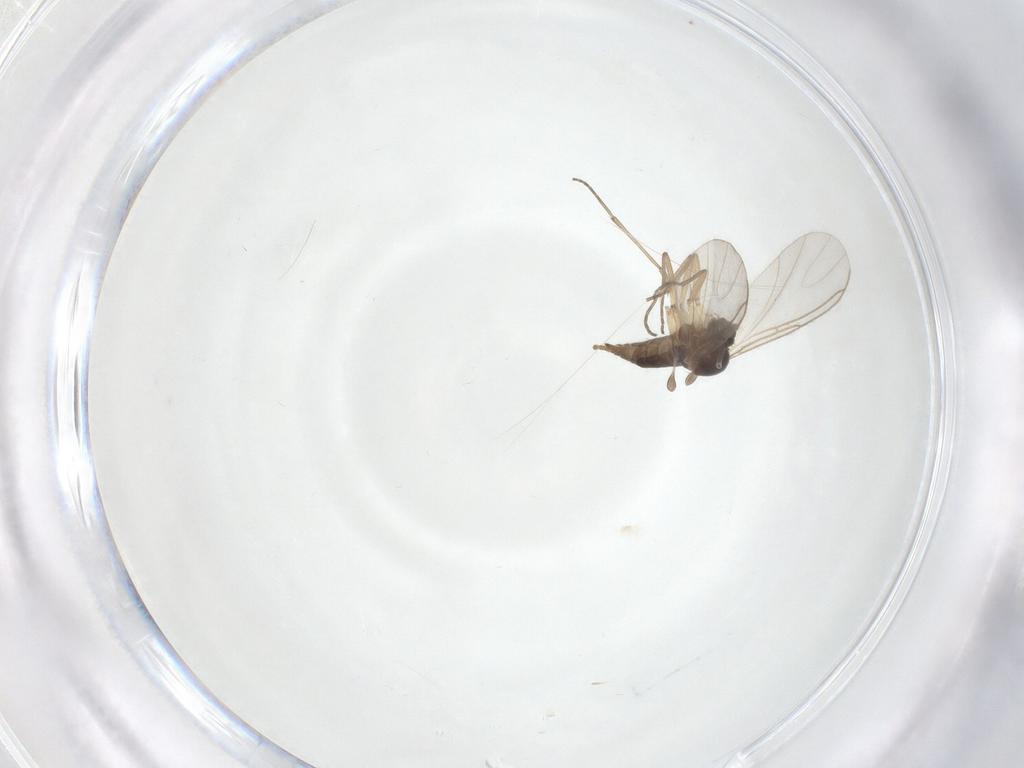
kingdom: Animalia
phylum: Arthropoda
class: Insecta
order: Diptera
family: Sciaridae
